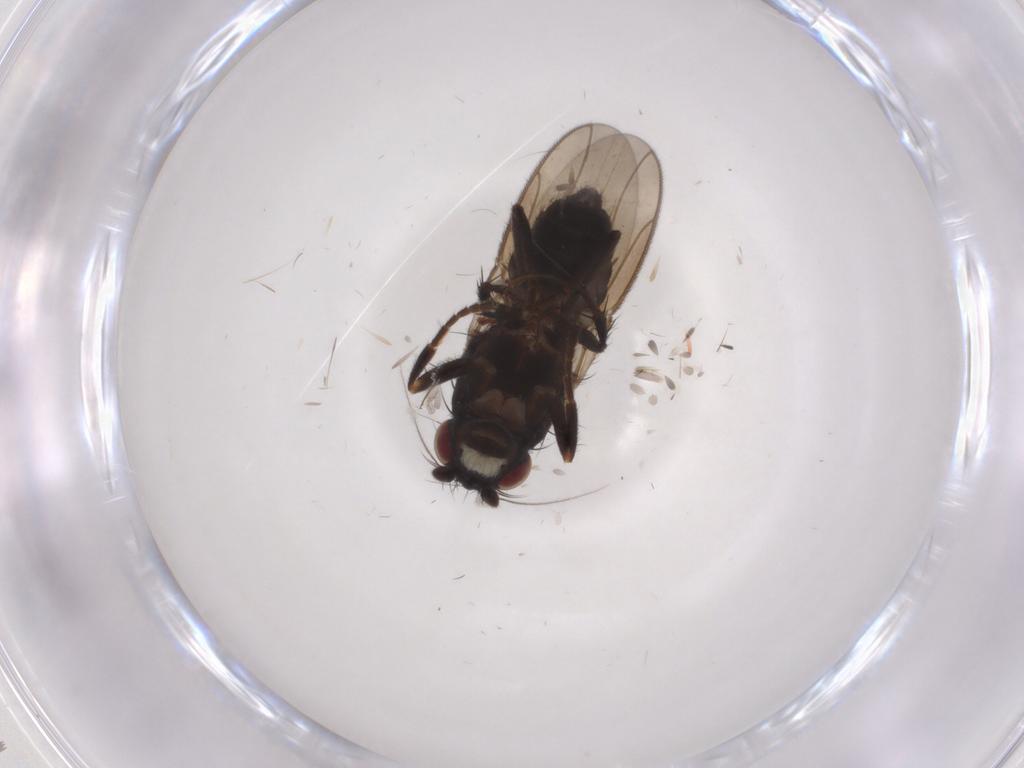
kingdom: Animalia
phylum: Arthropoda
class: Insecta
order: Diptera
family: Sphaeroceridae
